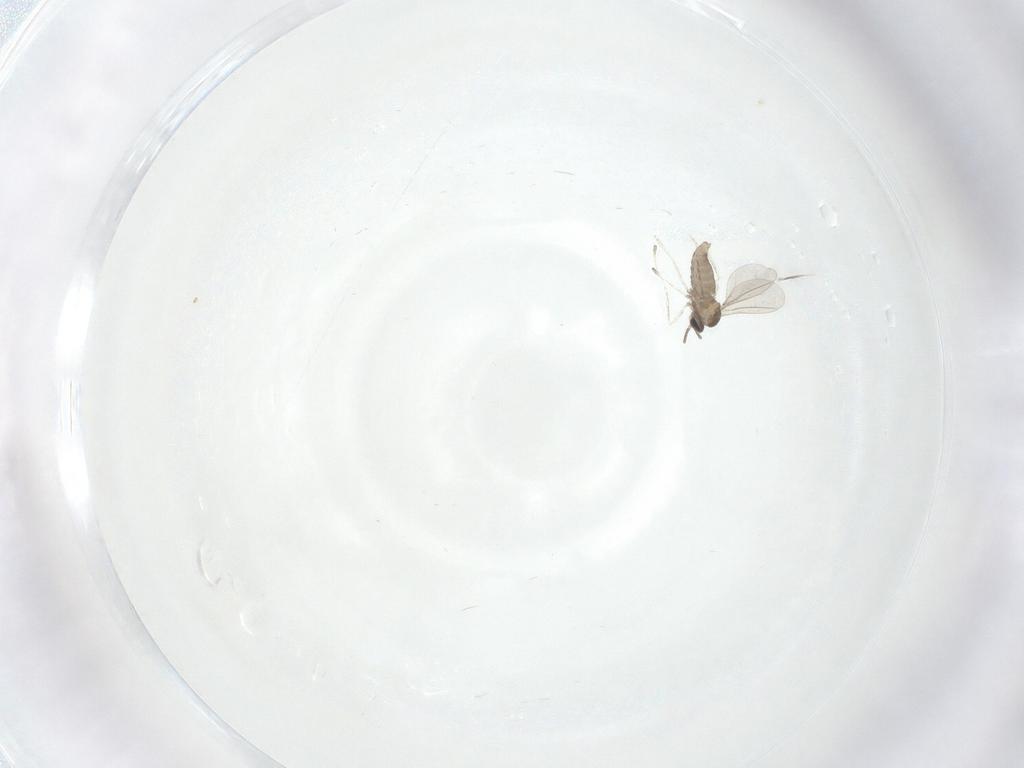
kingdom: Animalia
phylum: Arthropoda
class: Insecta
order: Diptera
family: Cecidomyiidae
